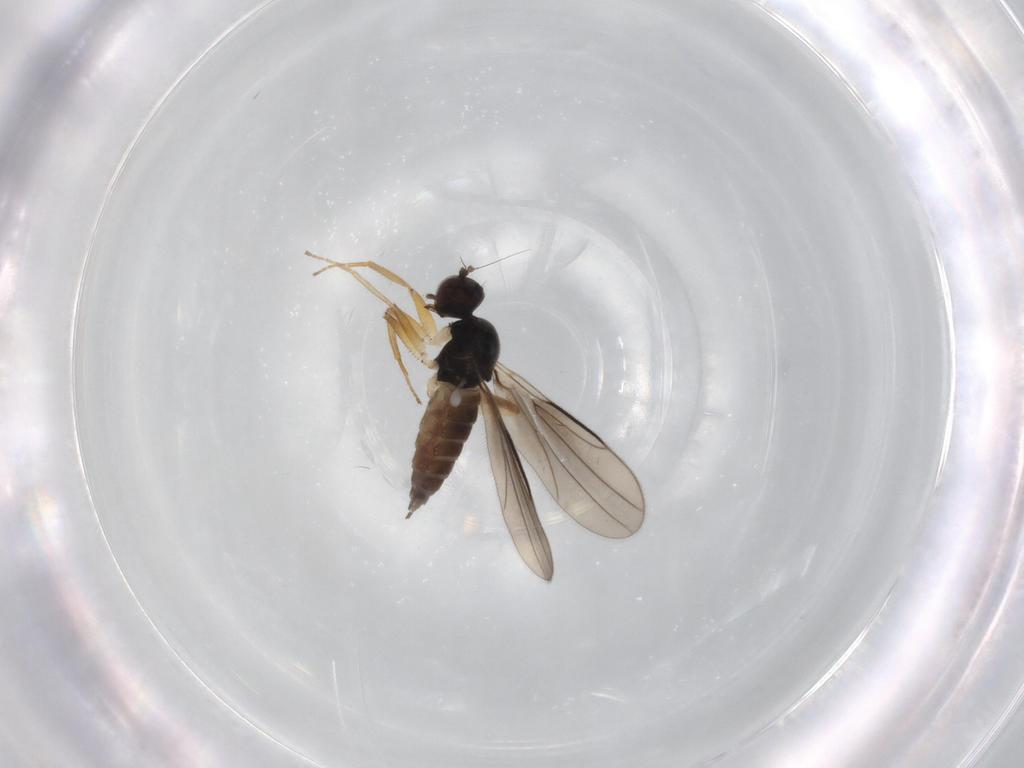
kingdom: Animalia
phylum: Arthropoda
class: Insecta
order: Diptera
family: Hybotidae
